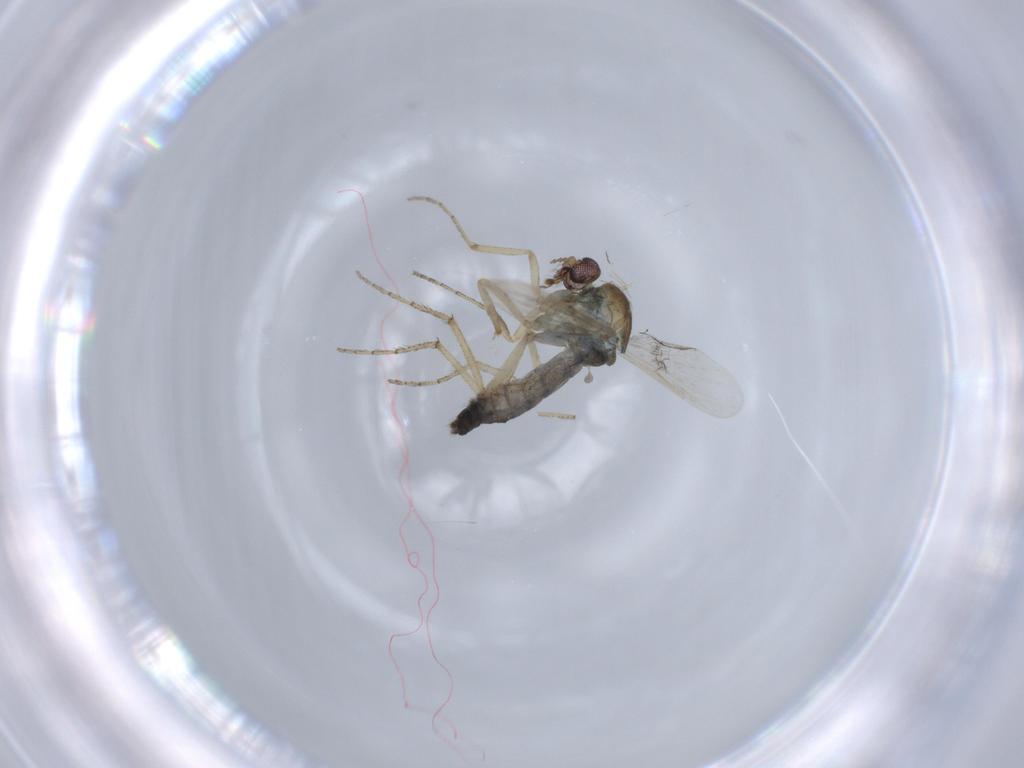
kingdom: Animalia
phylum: Arthropoda
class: Insecta
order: Diptera
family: Ceratopogonidae
